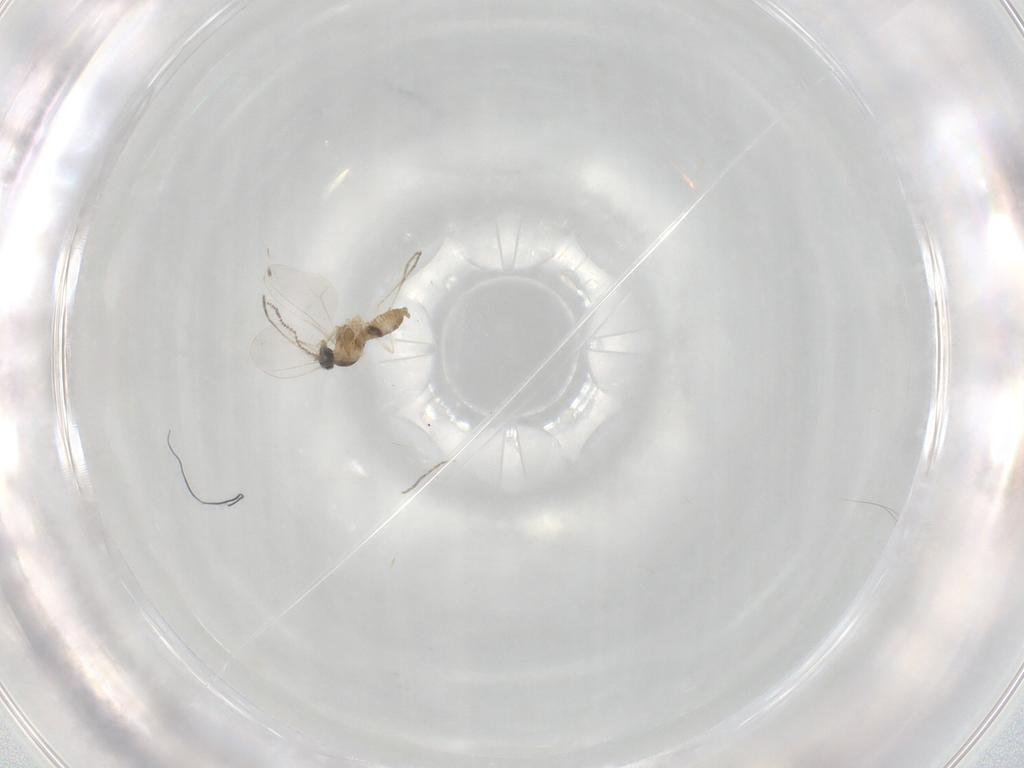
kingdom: Animalia
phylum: Arthropoda
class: Insecta
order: Diptera
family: Cecidomyiidae
